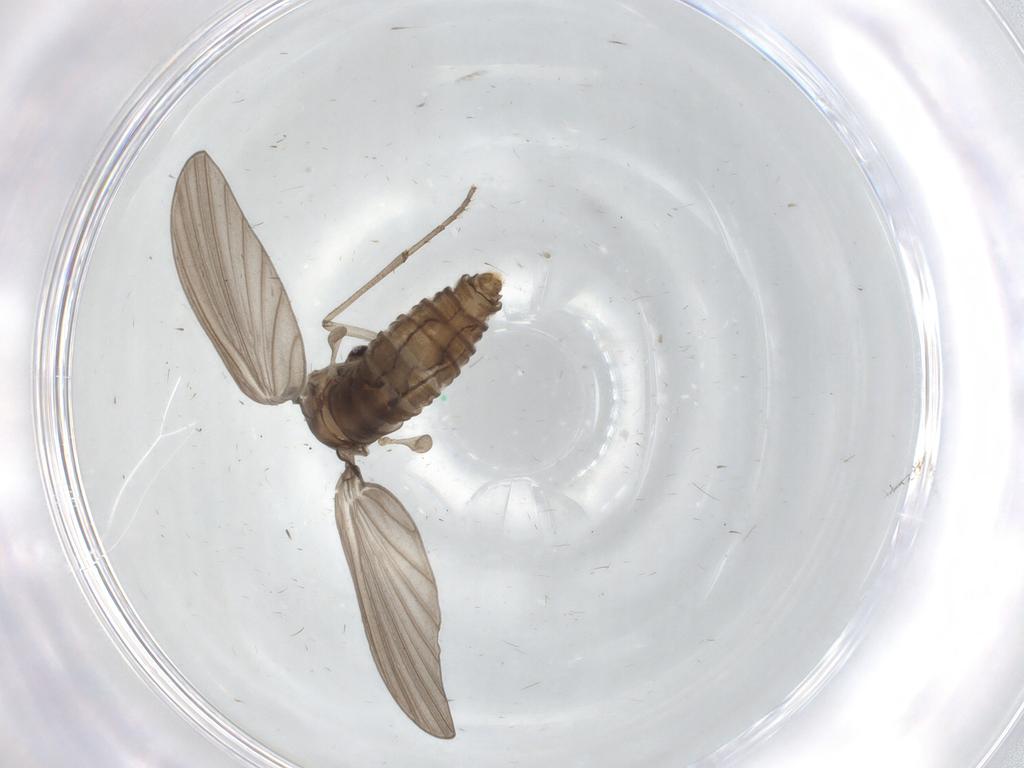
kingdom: Animalia
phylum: Arthropoda
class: Insecta
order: Diptera
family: Psychodidae
